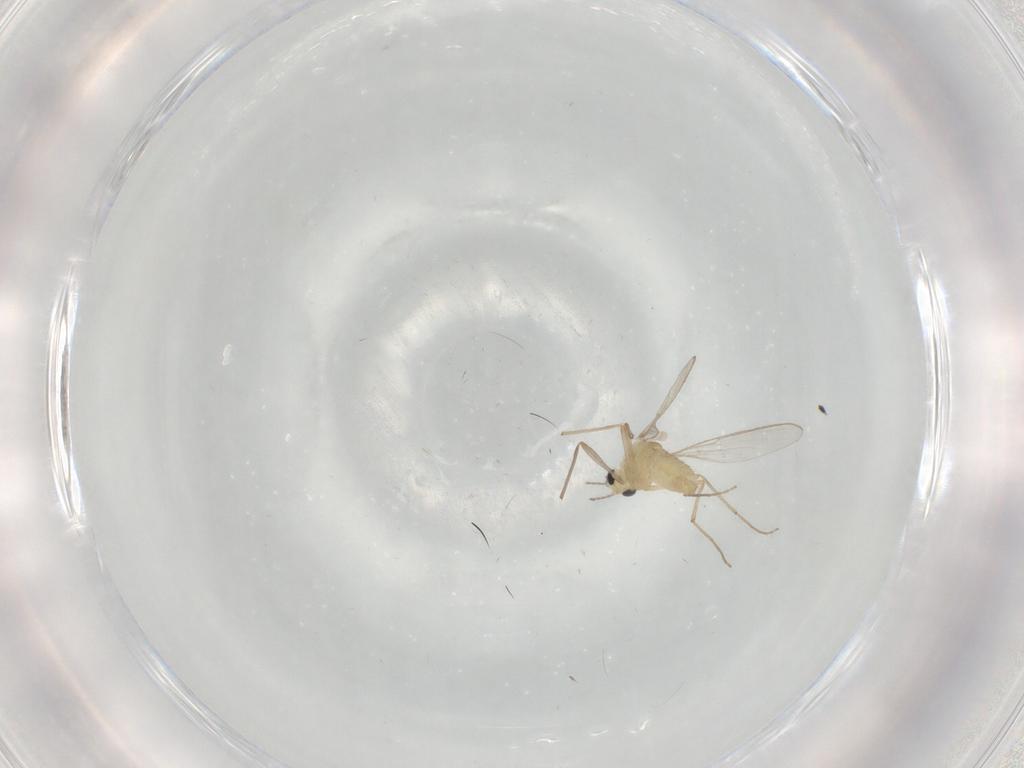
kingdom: Animalia
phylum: Arthropoda
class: Insecta
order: Diptera
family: Chironomidae
